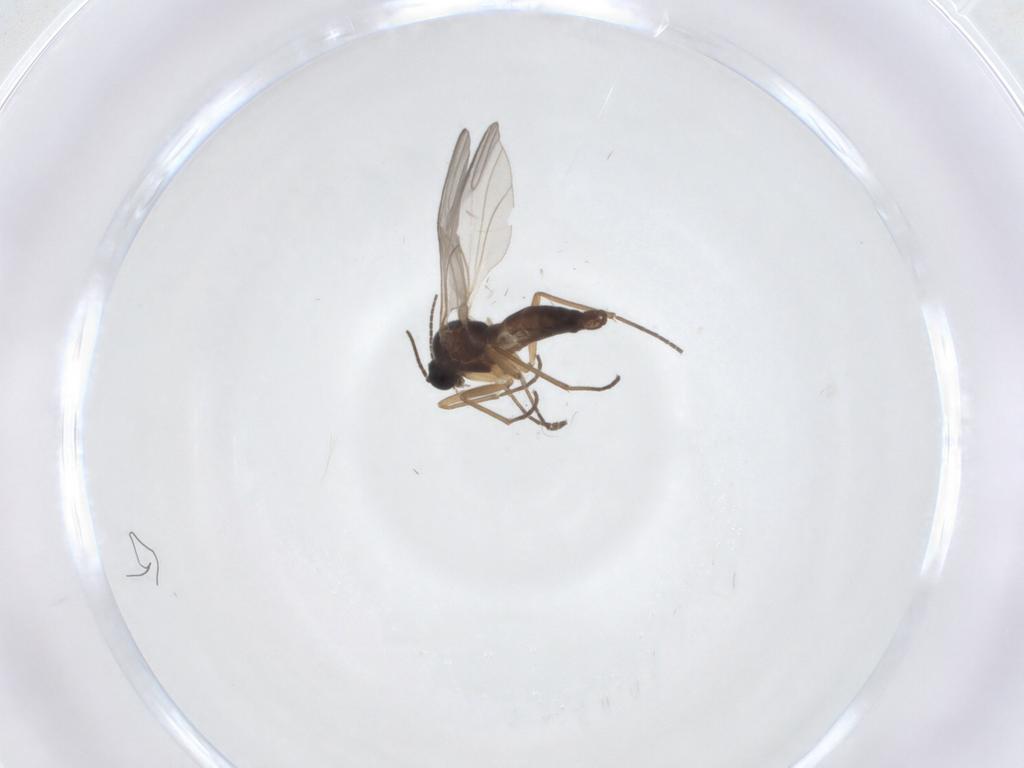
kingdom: Animalia
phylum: Arthropoda
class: Insecta
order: Diptera
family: Sciaridae
